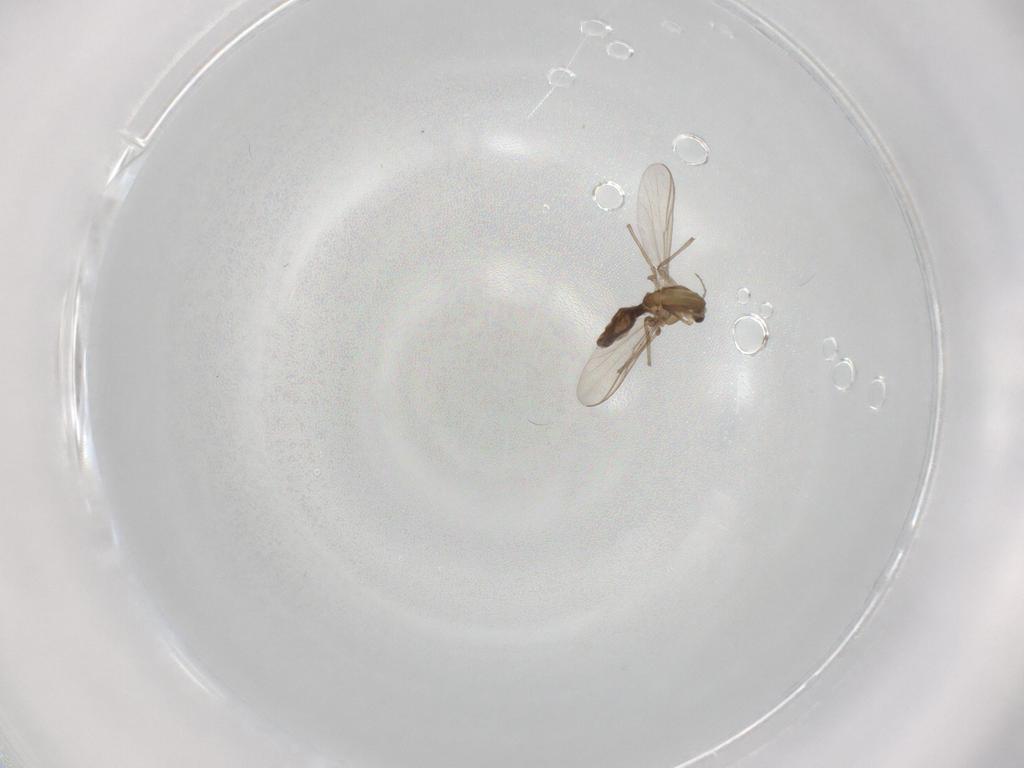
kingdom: Animalia
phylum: Arthropoda
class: Insecta
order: Diptera
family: Chironomidae
